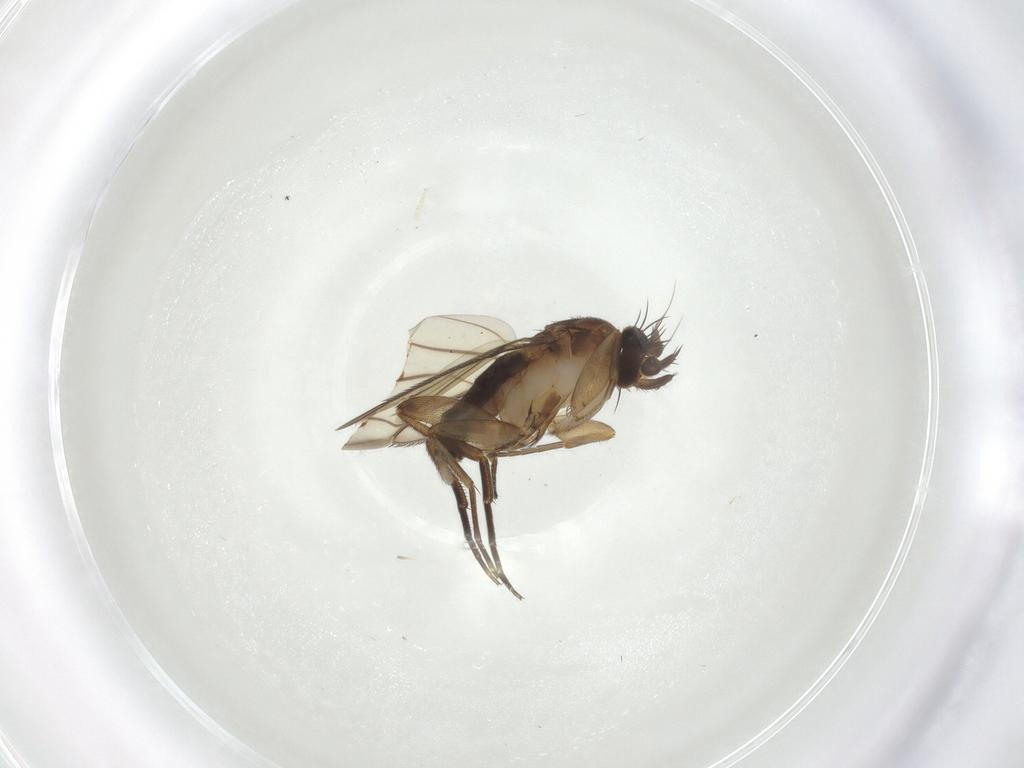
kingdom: Animalia
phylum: Arthropoda
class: Insecta
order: Diptera
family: Phoridae
